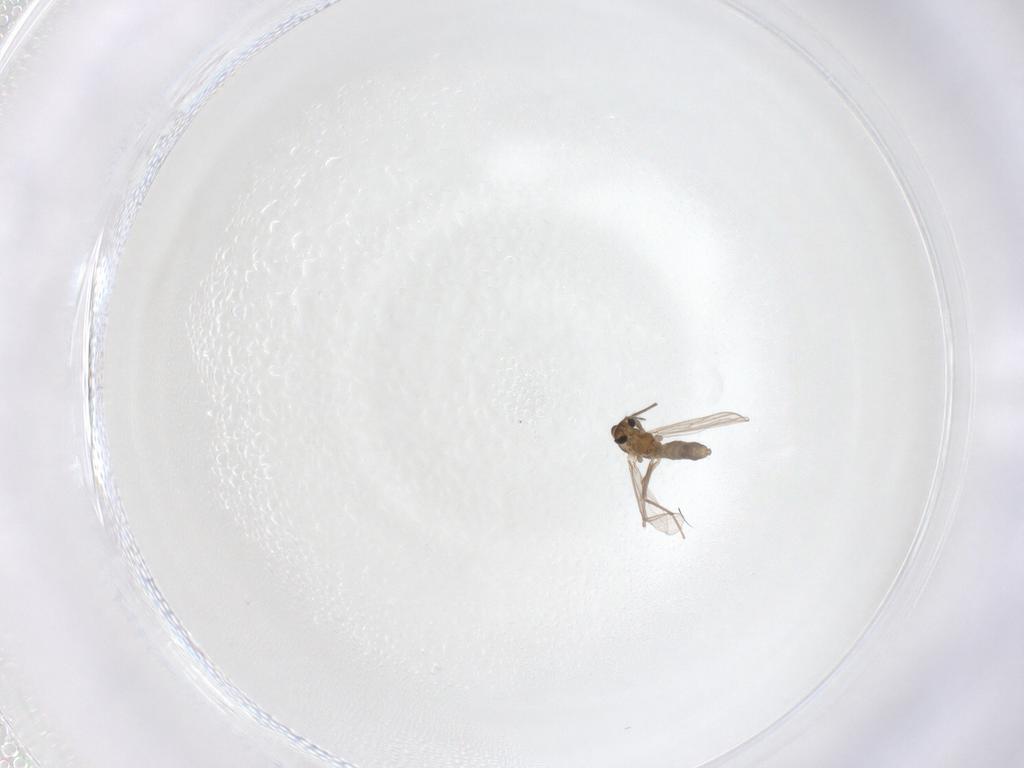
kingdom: Animalia
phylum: Arthropoda
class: Insecta
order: Diptera
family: Chironomidae
